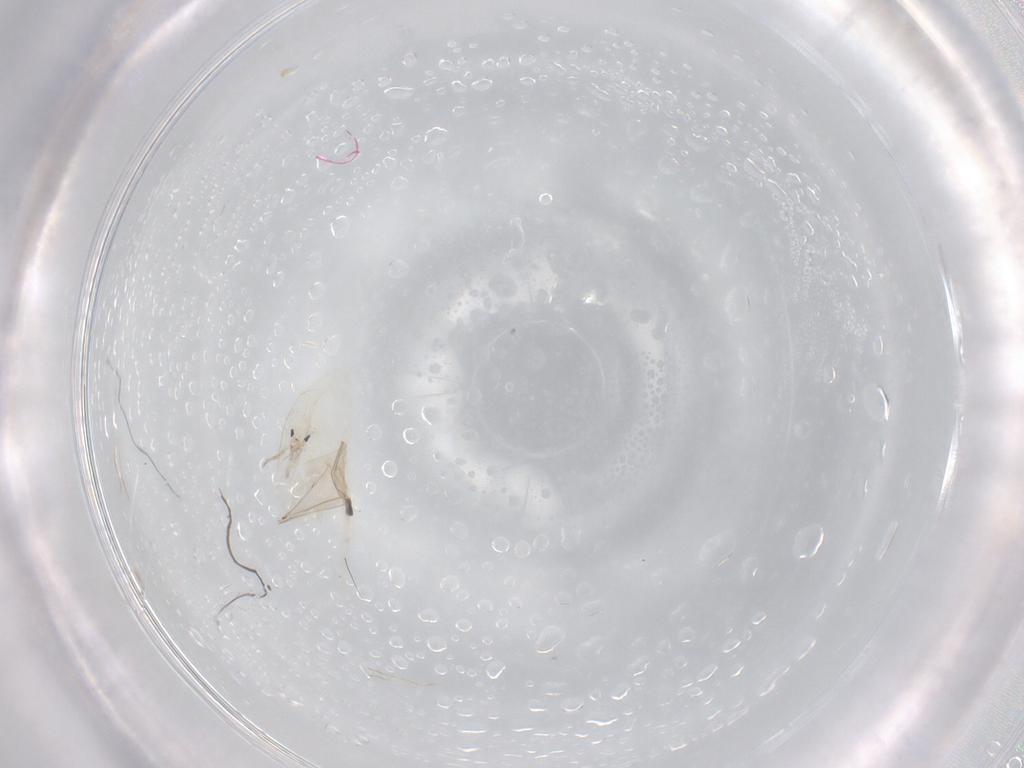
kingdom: Animalia
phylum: Arthropoda
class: Collembola
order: Entomobryomorpha
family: Entomobryidae
